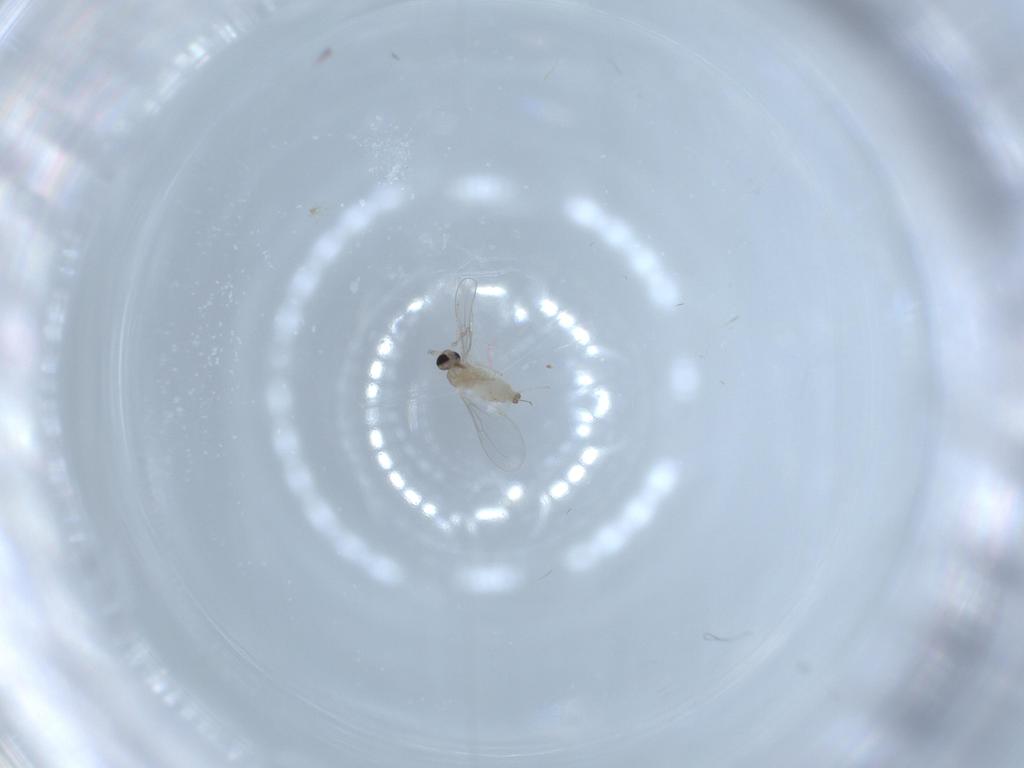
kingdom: Animalia
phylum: Arthropoda
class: Insecta
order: Diptera
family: Cecidomyiidae
